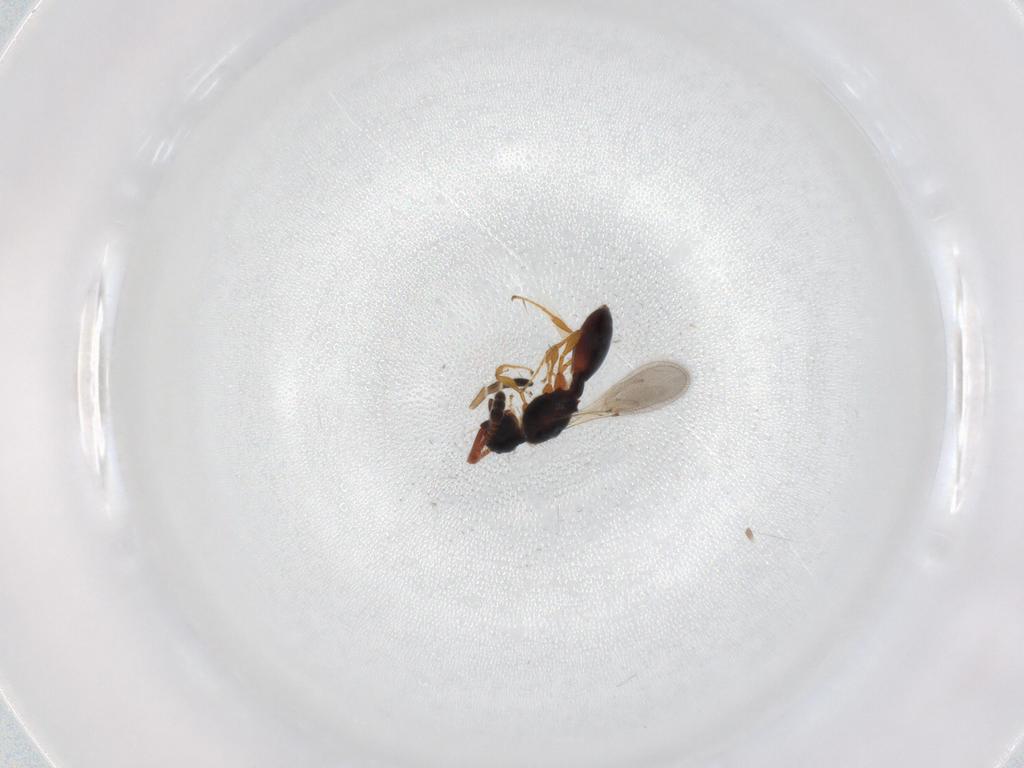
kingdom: Animalia
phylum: Arthropoda
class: Insecta
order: Hymenoptera
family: Diapriidae
